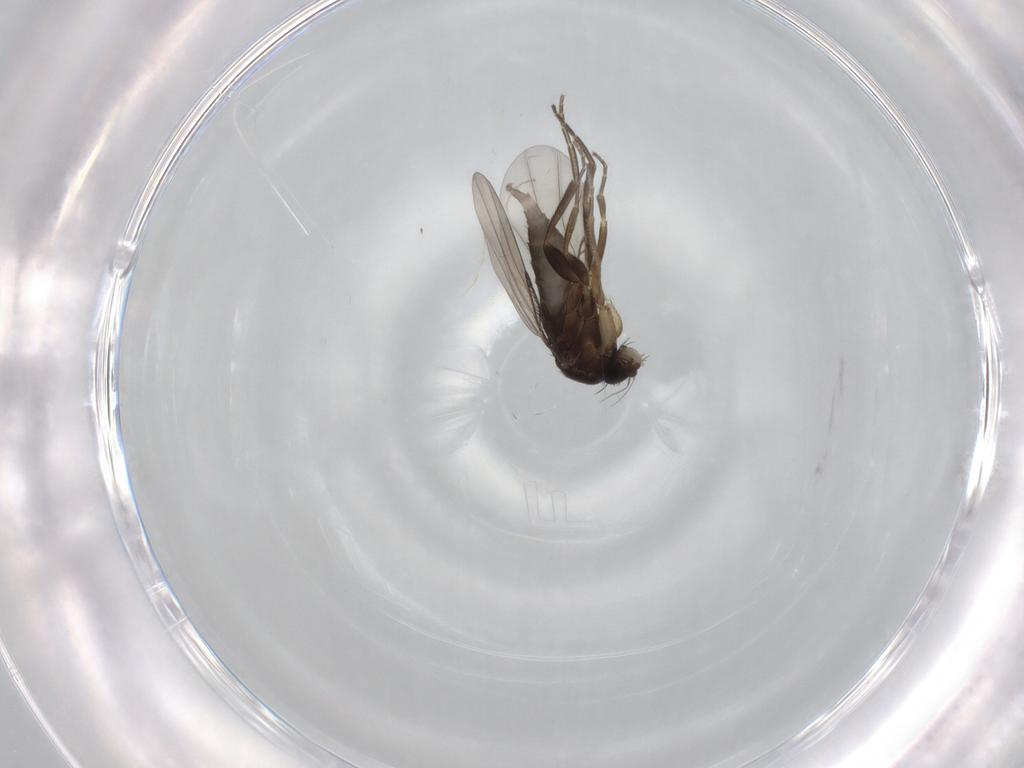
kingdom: Animalia
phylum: Arthropoda
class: Insecta
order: Diptera
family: Phoridae
